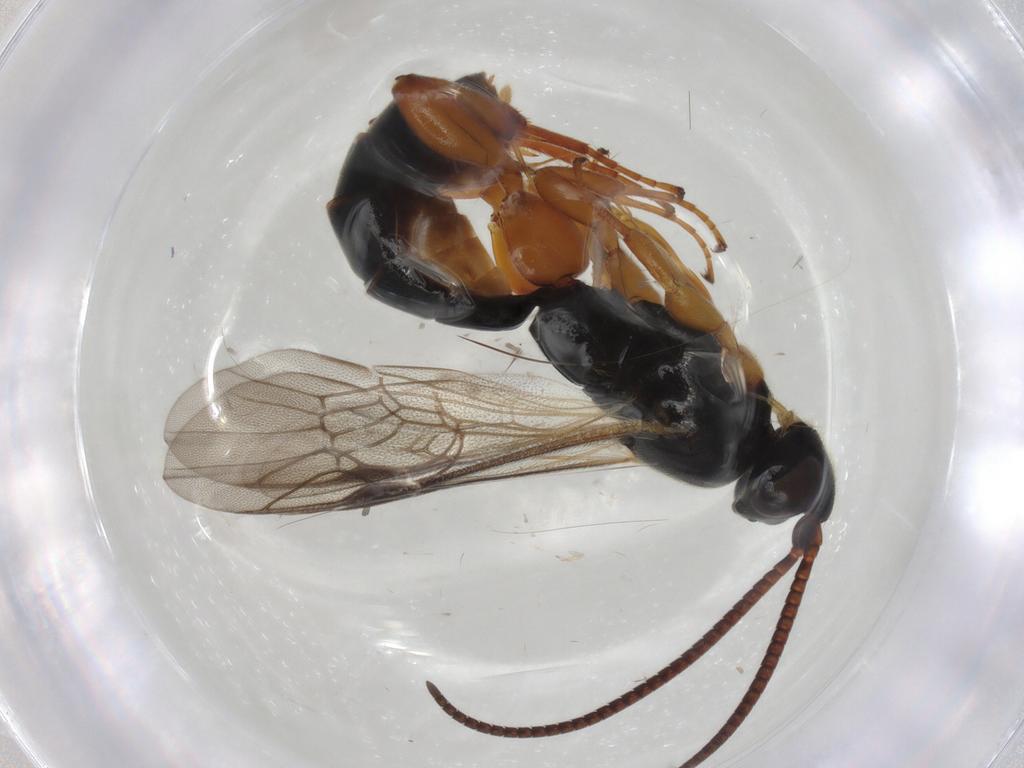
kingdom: Animalia
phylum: Arthropoda
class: Insecta
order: Hymenoptera
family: Ichneumonidae
